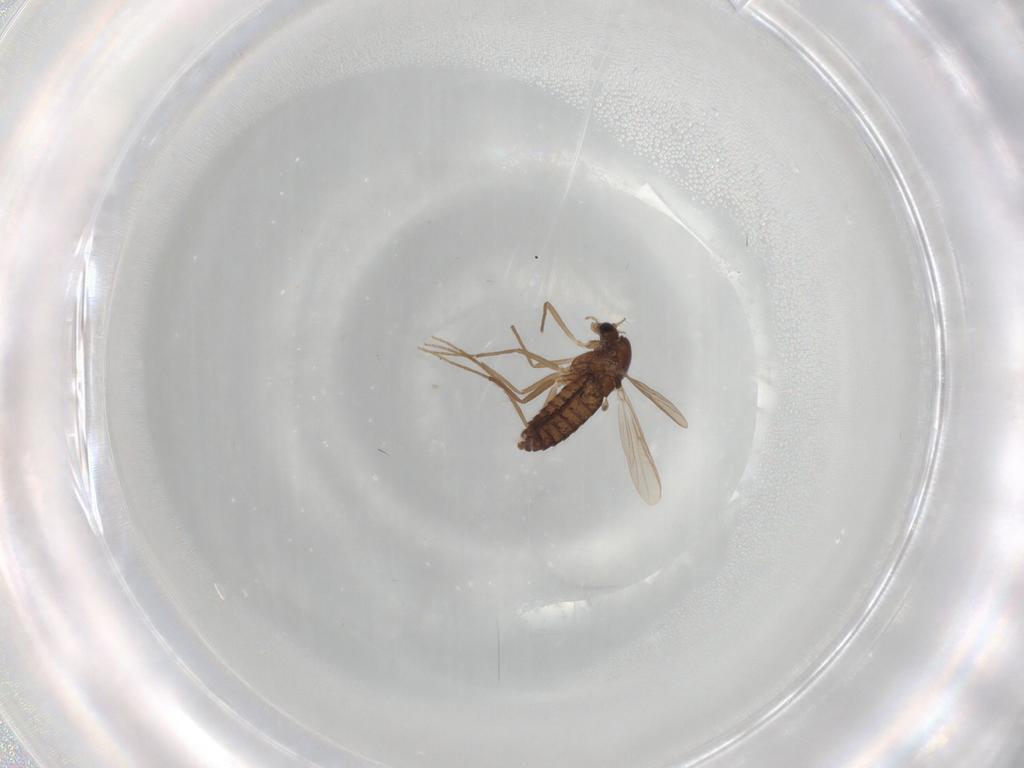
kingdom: Animalia
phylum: Arthropoda
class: Insecta
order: Diptera
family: Chironomidae
